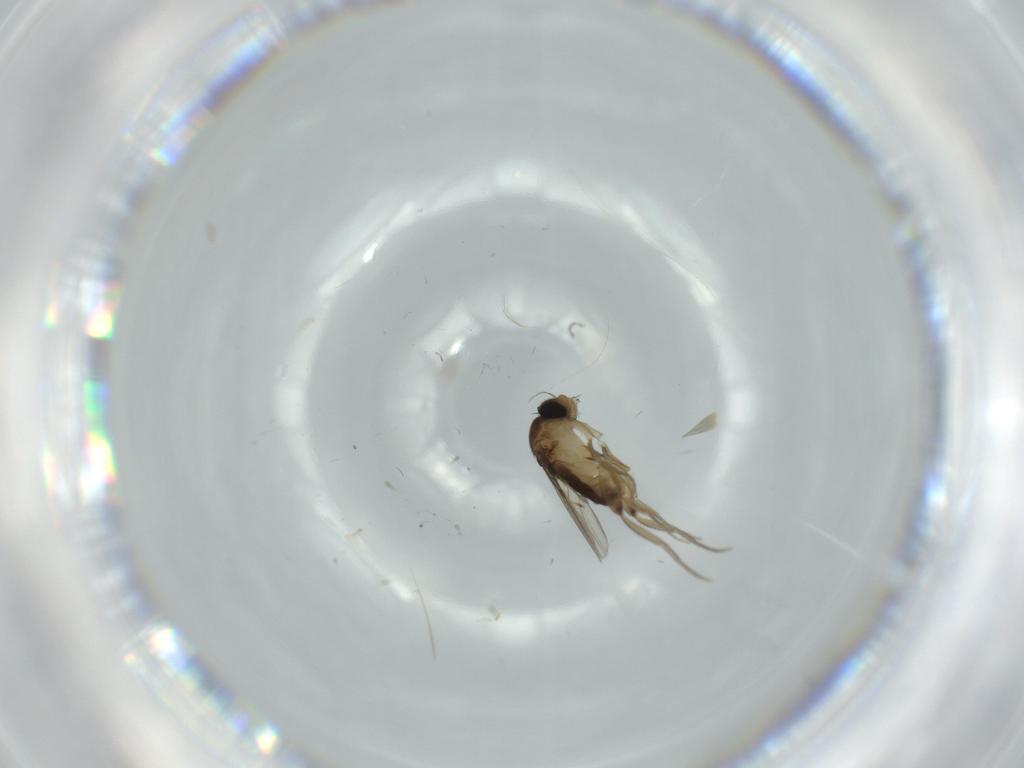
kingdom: Animalia
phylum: Arthropoda
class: Insecta
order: Diptera
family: Phoridae
